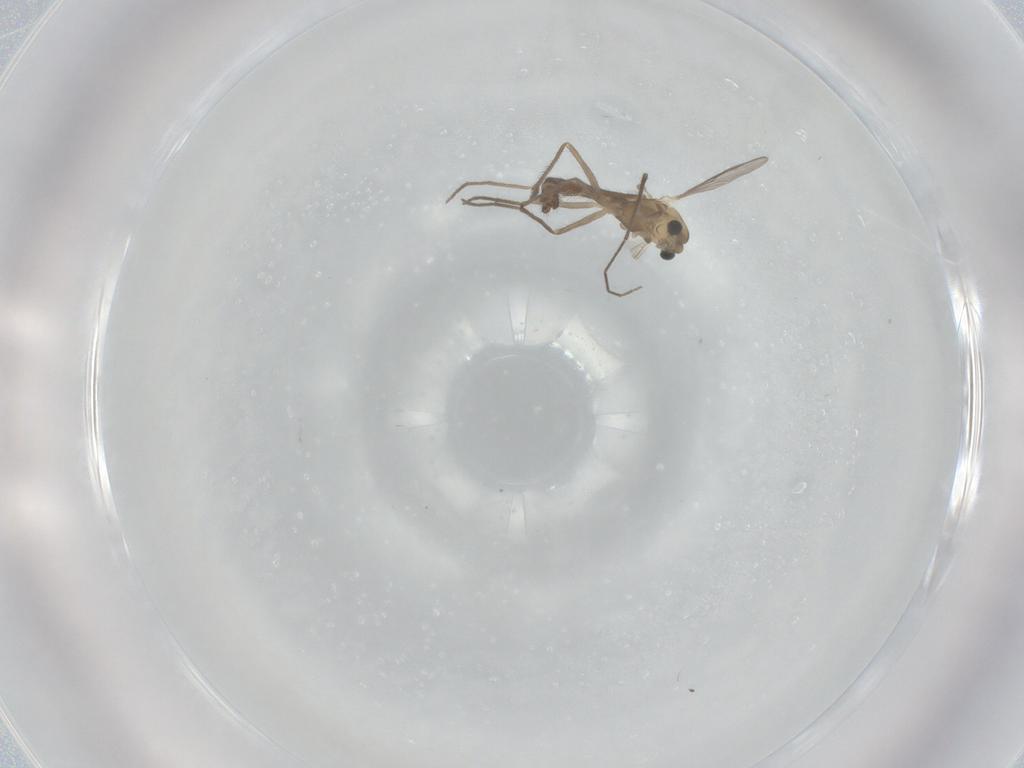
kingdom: Animalia
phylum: Arthropoda
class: Insecta
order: Diptera
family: Chironomidae
